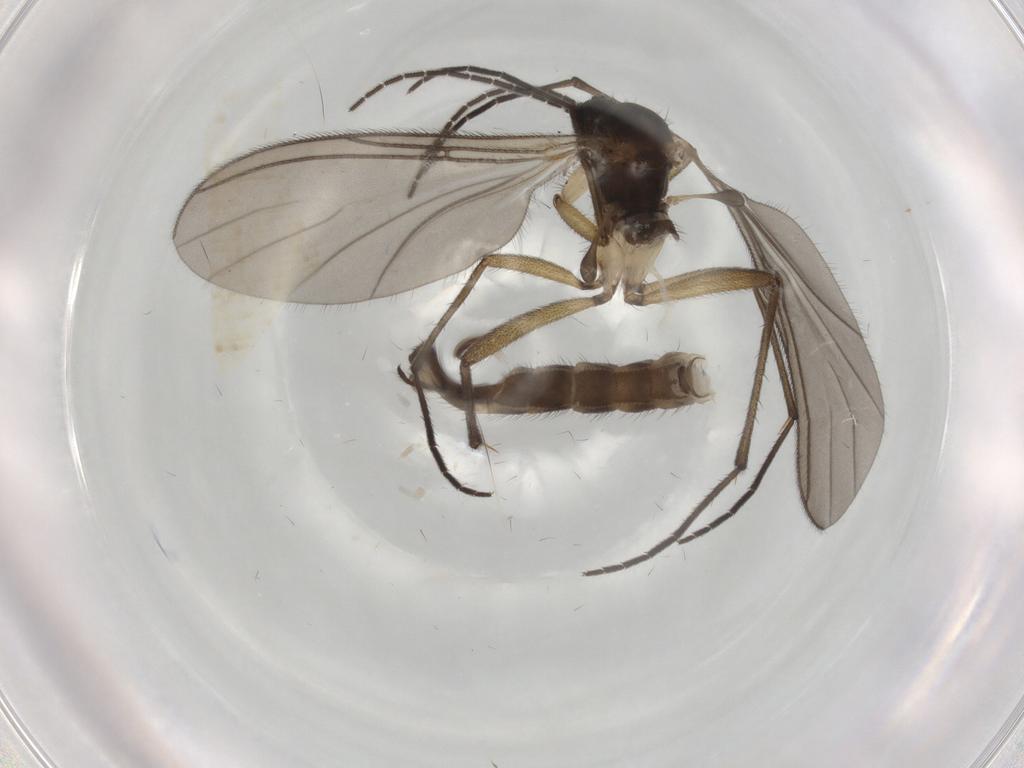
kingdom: Animalia
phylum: Arthropoda
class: Insecta
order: Diptera
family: Sciaridae
